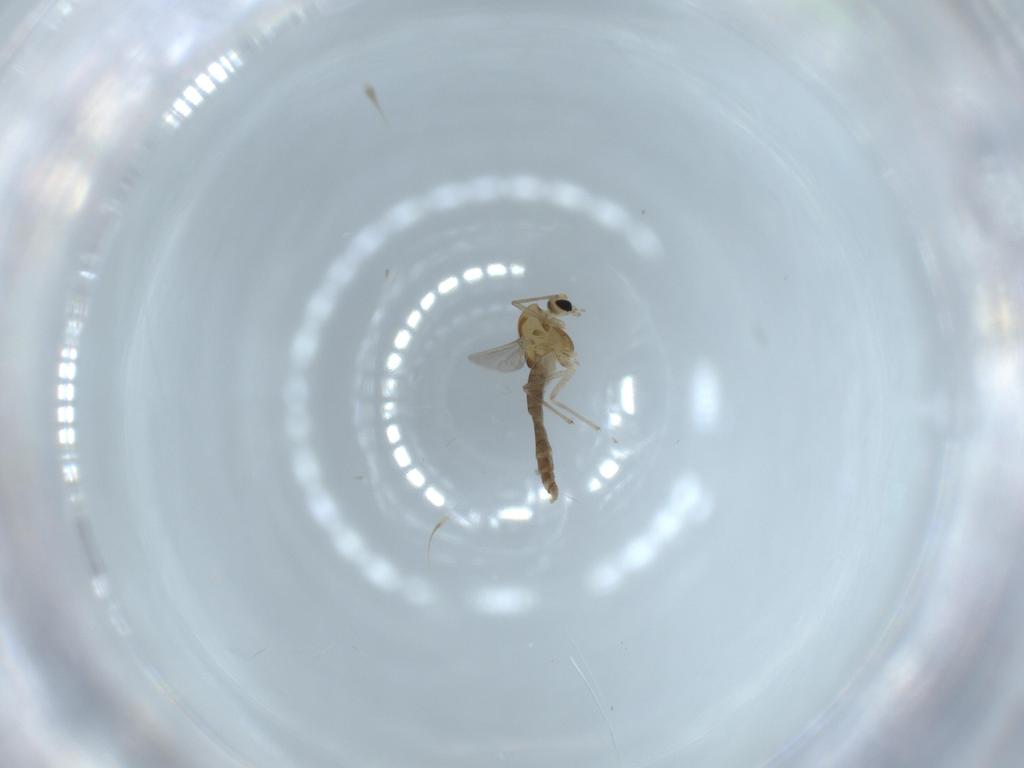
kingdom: Animalia
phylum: Arthropoda
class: Insecta
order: Diptera
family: Chironomidae
